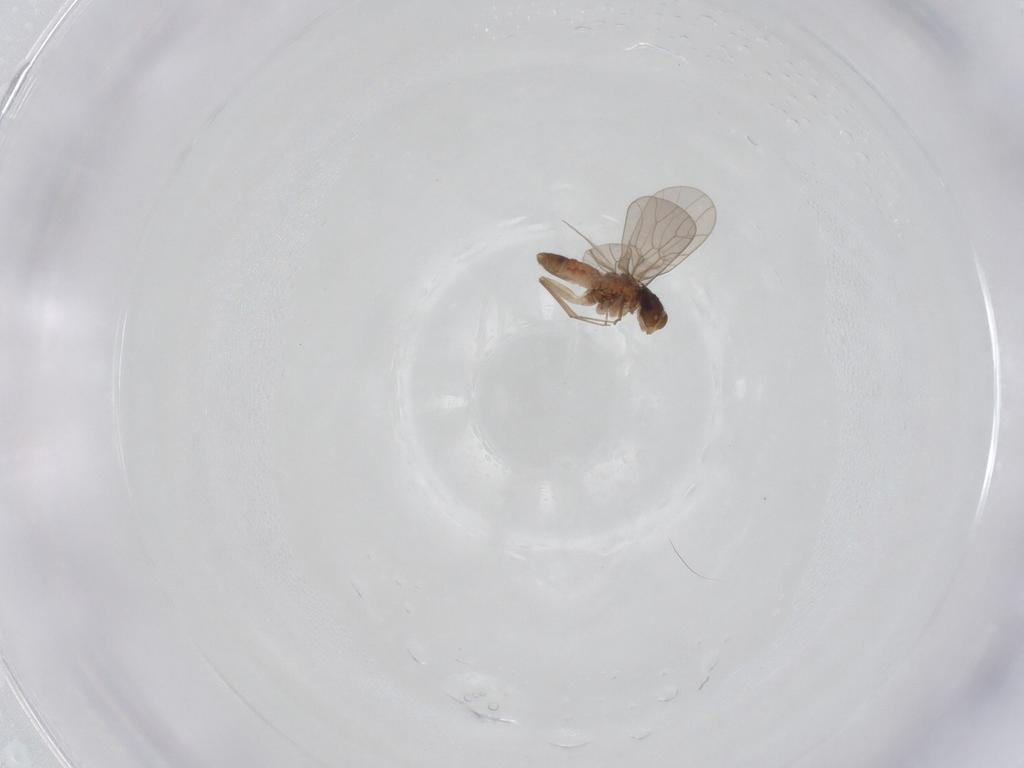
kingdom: Animalia
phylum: Arthropoda
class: Insecta
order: Psocodea
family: Lepidopsocidae
